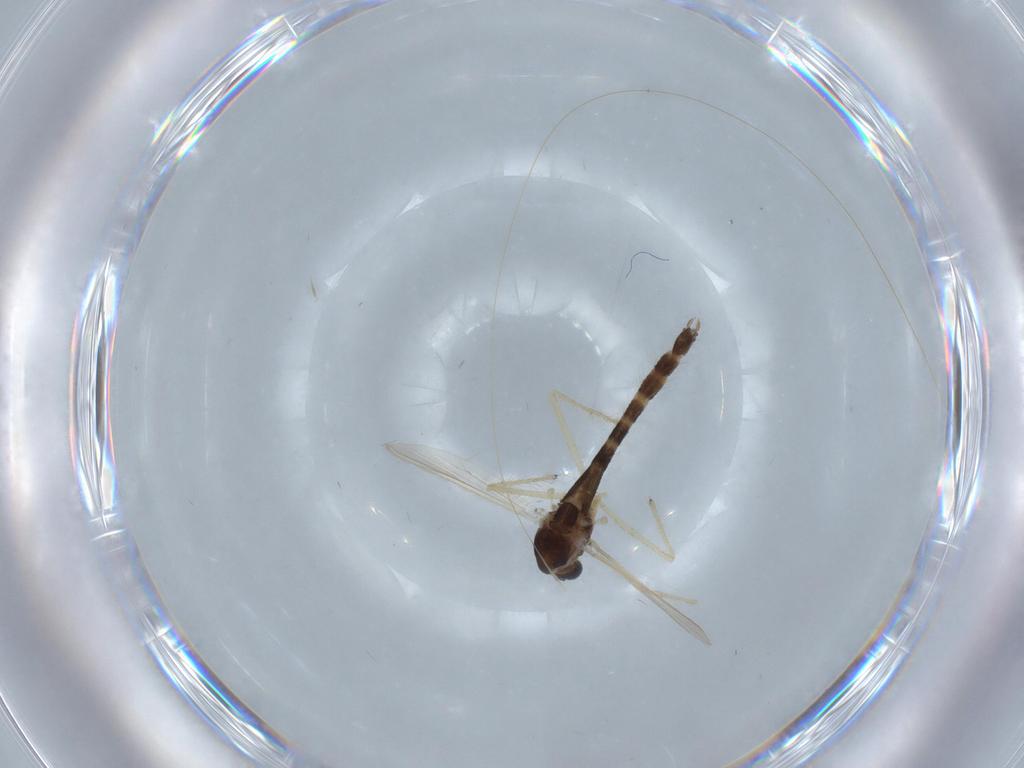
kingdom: Animalia
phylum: Arthropoda
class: Insecta
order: Diptera
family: Chironomidae
